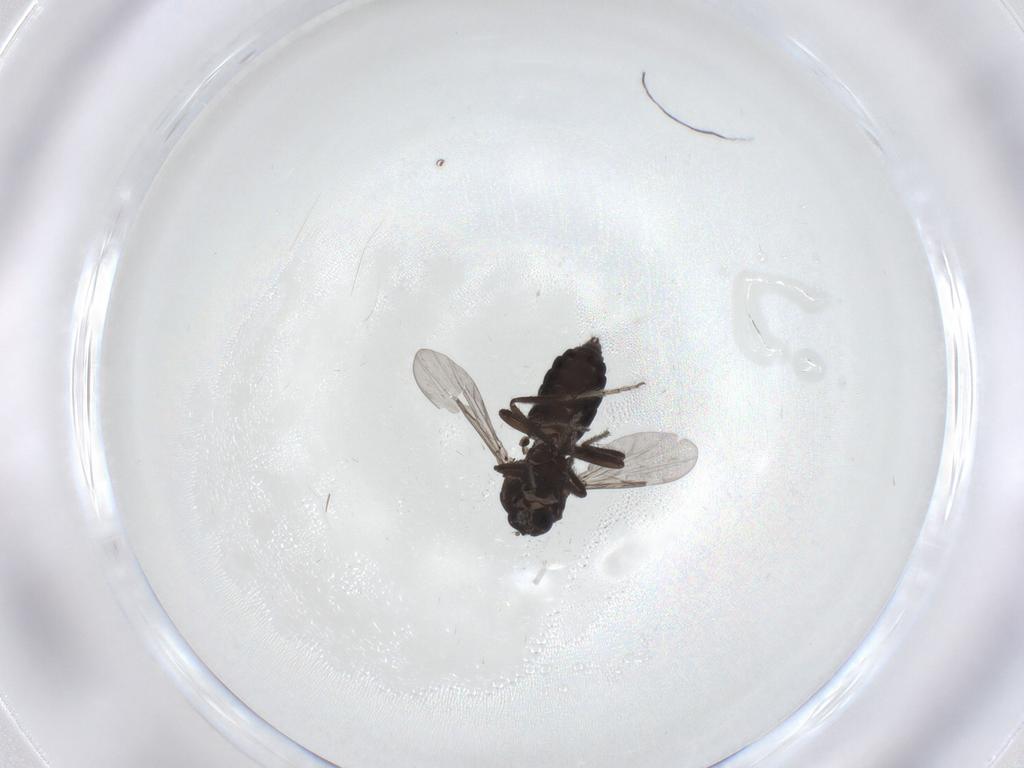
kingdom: Animalia
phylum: Arthropoda
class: Insecta
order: Diptera
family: Ceratopogonidae
